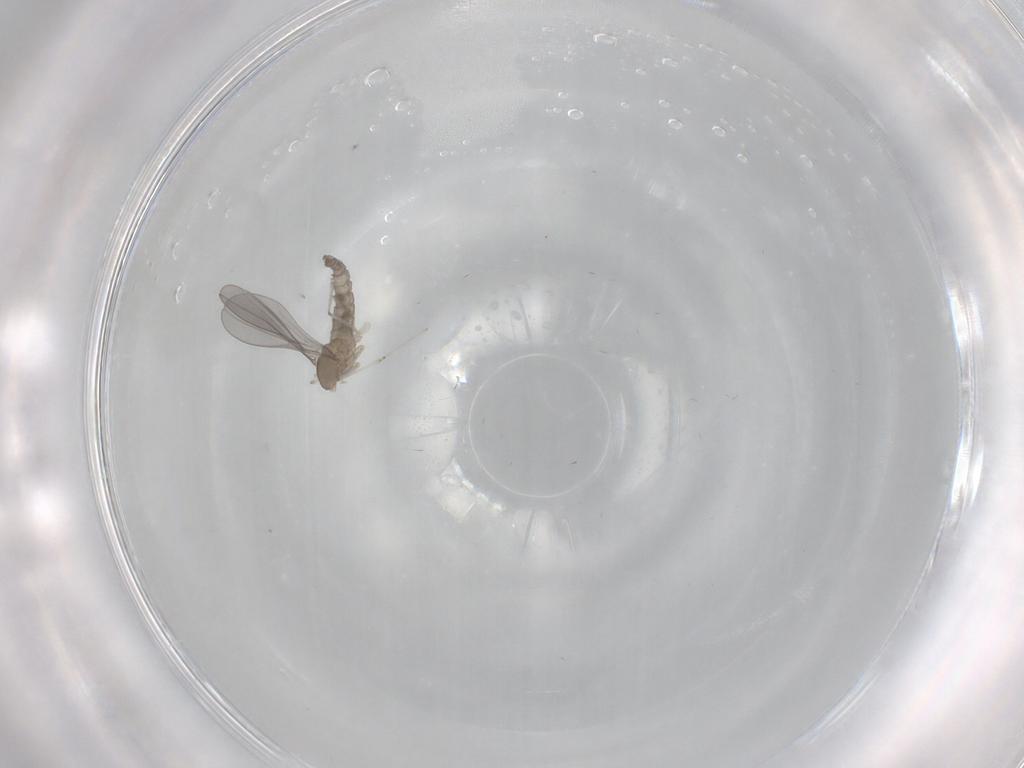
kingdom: Animalia
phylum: Arthropoda
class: Insecta
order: Diptera
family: Cecidomyiidae
